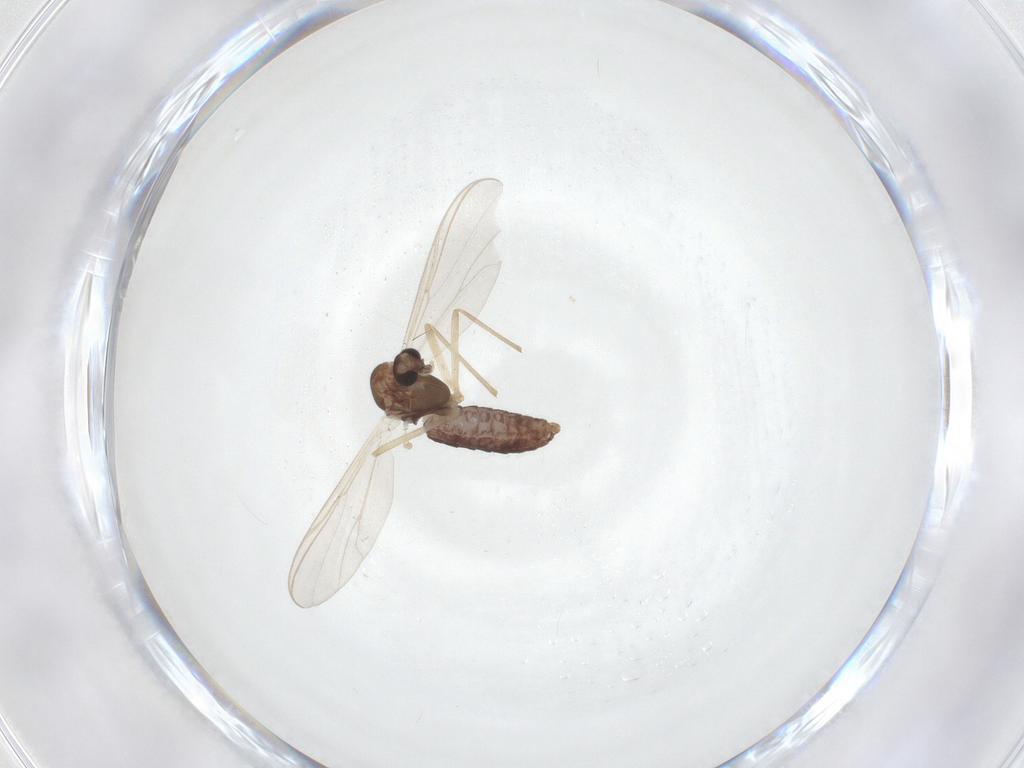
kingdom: Animalia
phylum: Arthropoda
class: Insecta
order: Diptera
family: Chironomidae
